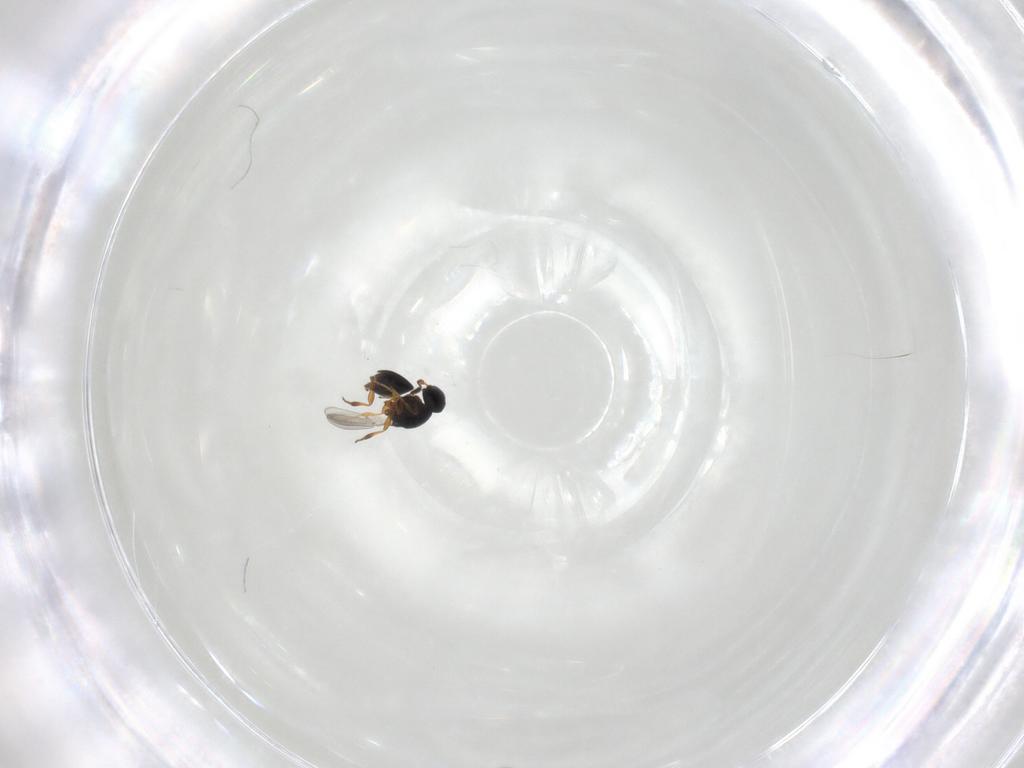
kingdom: Animalia
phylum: Arthropoda
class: Insecta
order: Hymenoptera
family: Platygastridae
